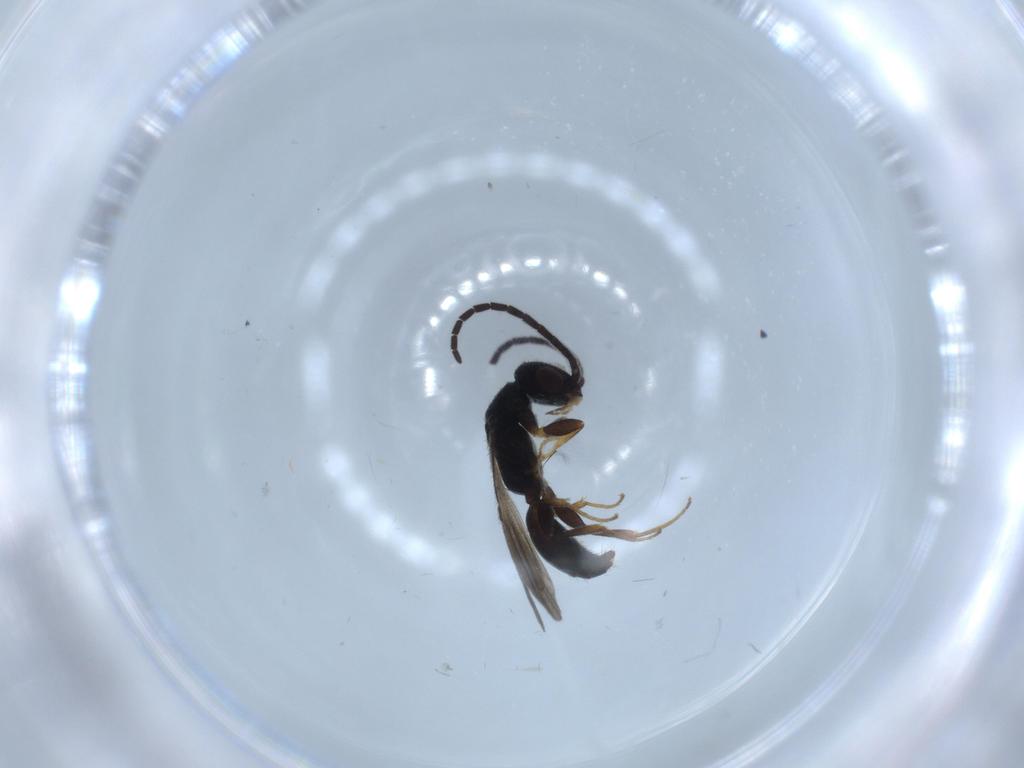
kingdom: Animalia
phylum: Arthropoda
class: Insecta
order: Hymenoptera
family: Bethylidae
